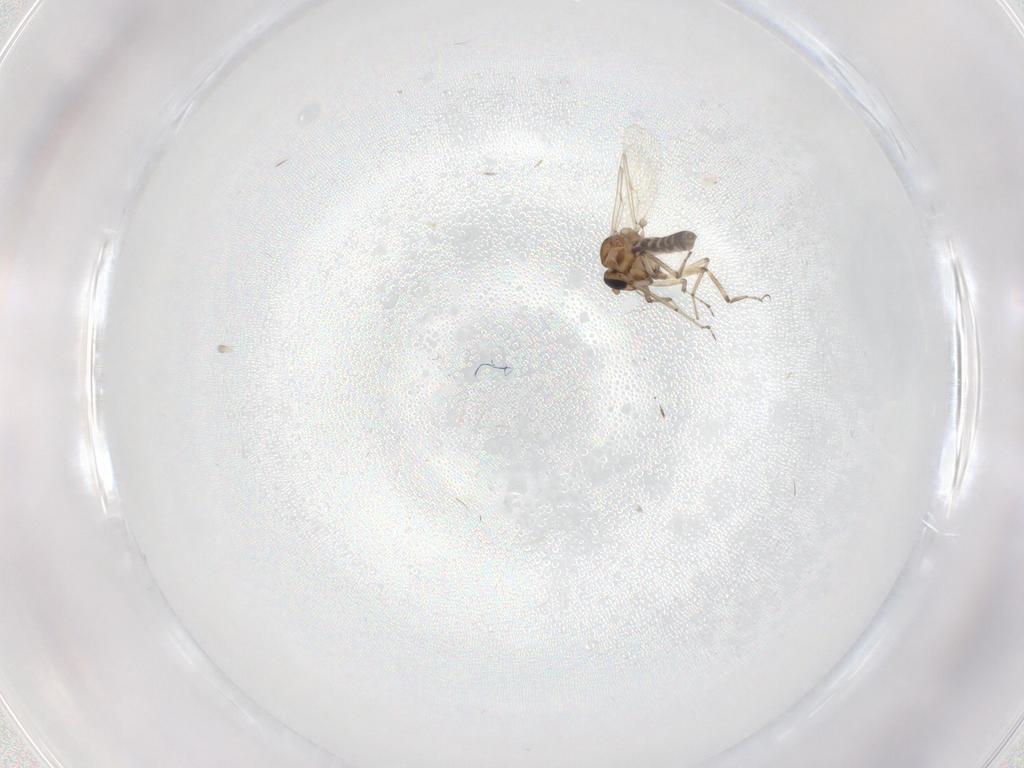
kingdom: Animalia
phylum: Arthropoda
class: Insecta
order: Diptera
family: Ceratopogonidae
